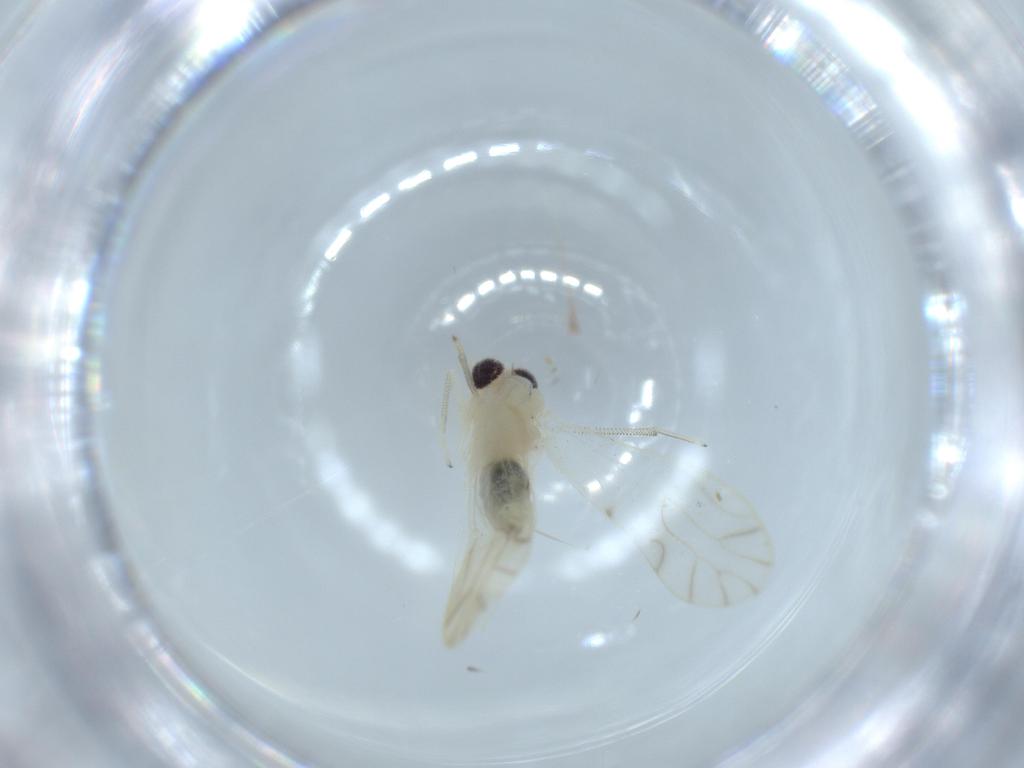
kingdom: Animalia
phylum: Arthropoda
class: Insecta
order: Psocodea
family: Caeciliusidae
